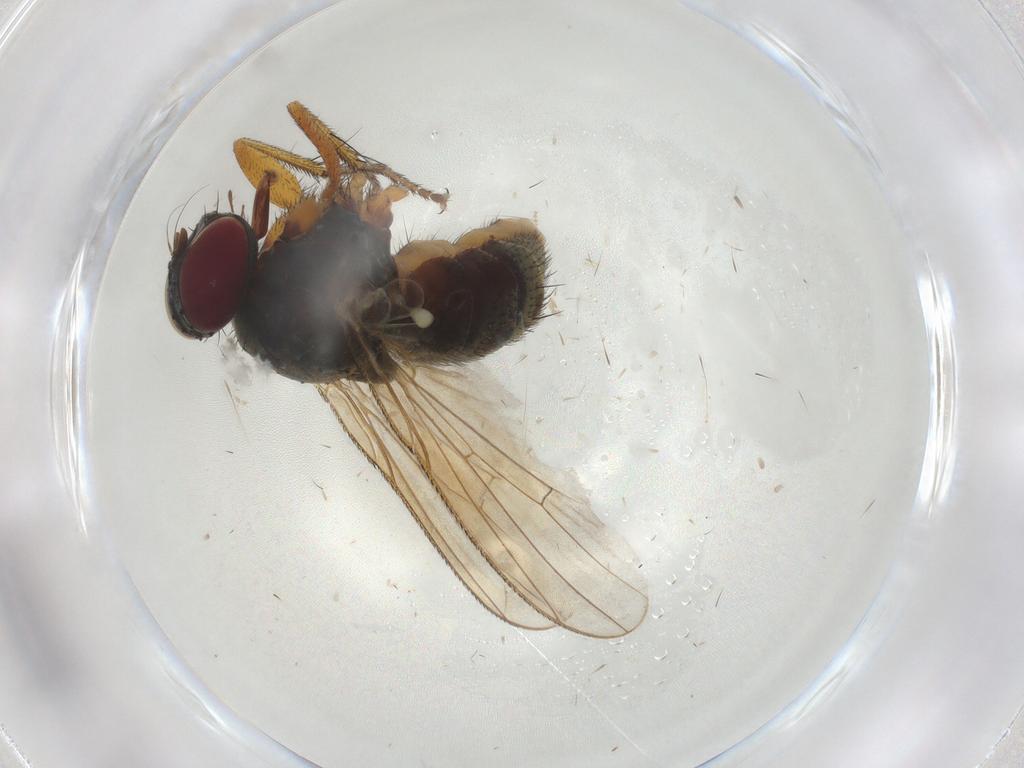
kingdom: Animalia
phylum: Arthropoda
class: Insecta
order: Diptera
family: Muscidae
